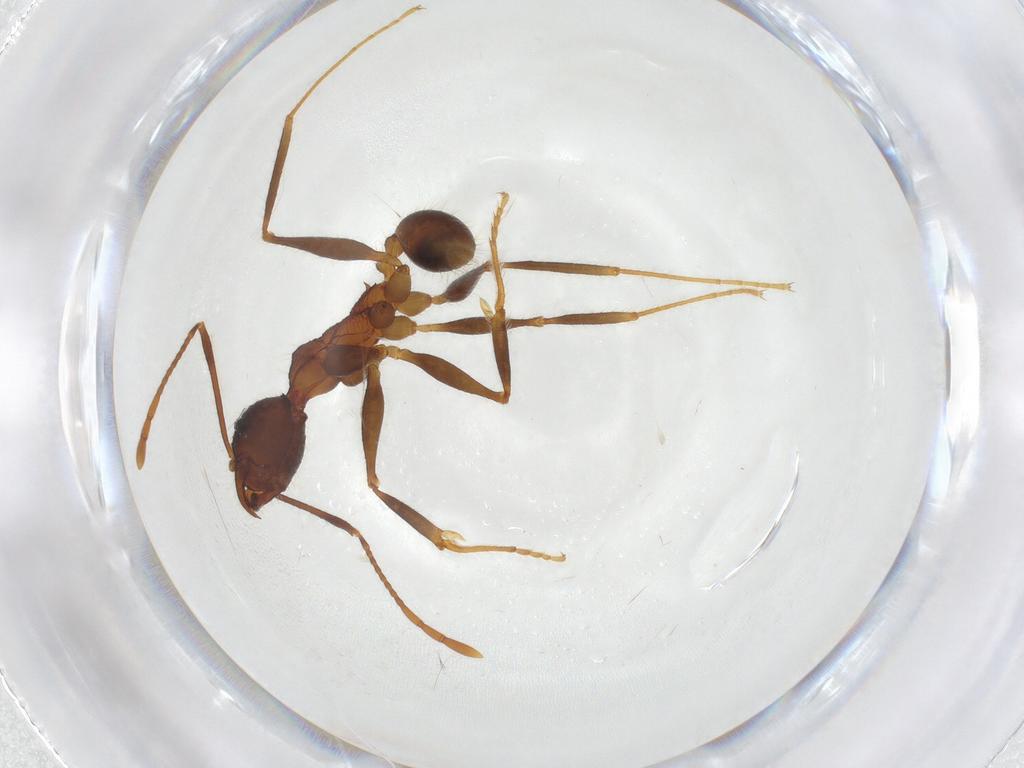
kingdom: Animalia
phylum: Arthropoda
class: Insecta
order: Hymenoptera
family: Formicidae
